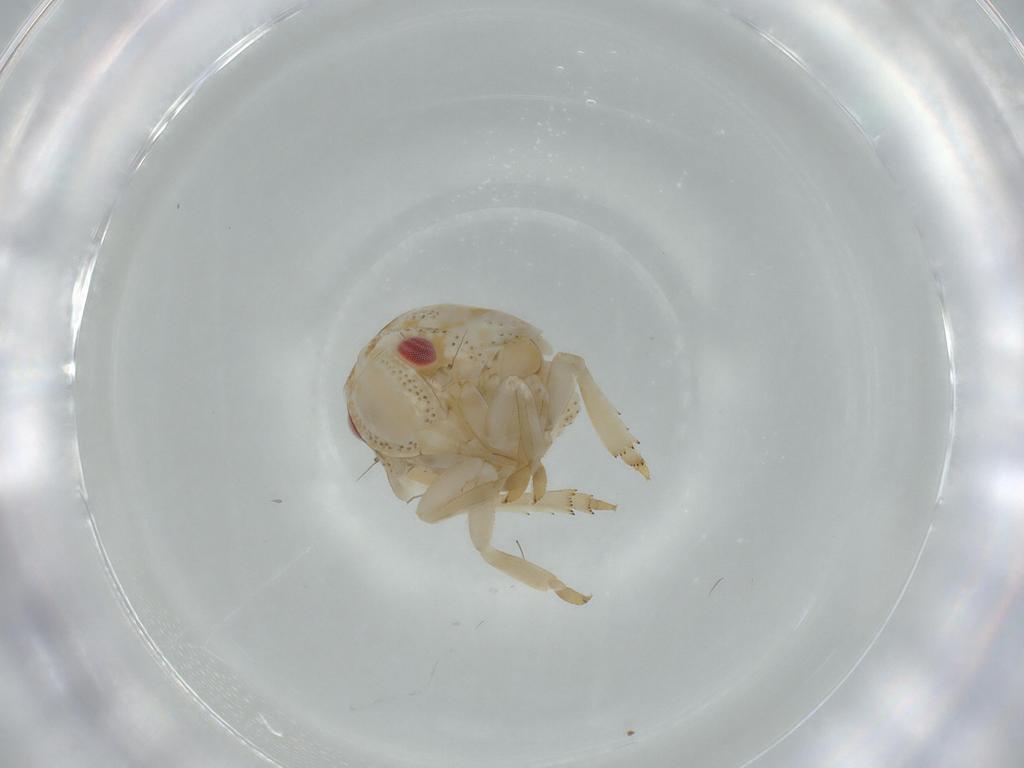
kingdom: Animalia
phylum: Arthropoda
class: Insecta
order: Hemiptera
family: Acanaloniidae
